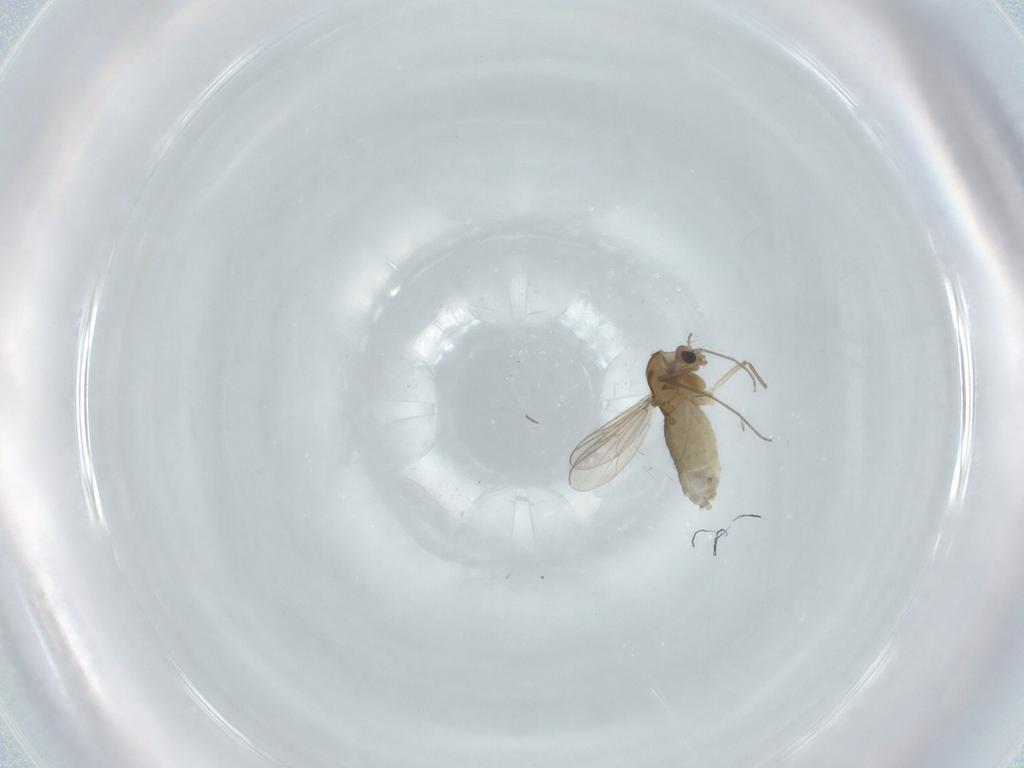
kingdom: Animalia
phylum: Arthropoda
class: Insecta
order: Diptera
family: Chironomidae
